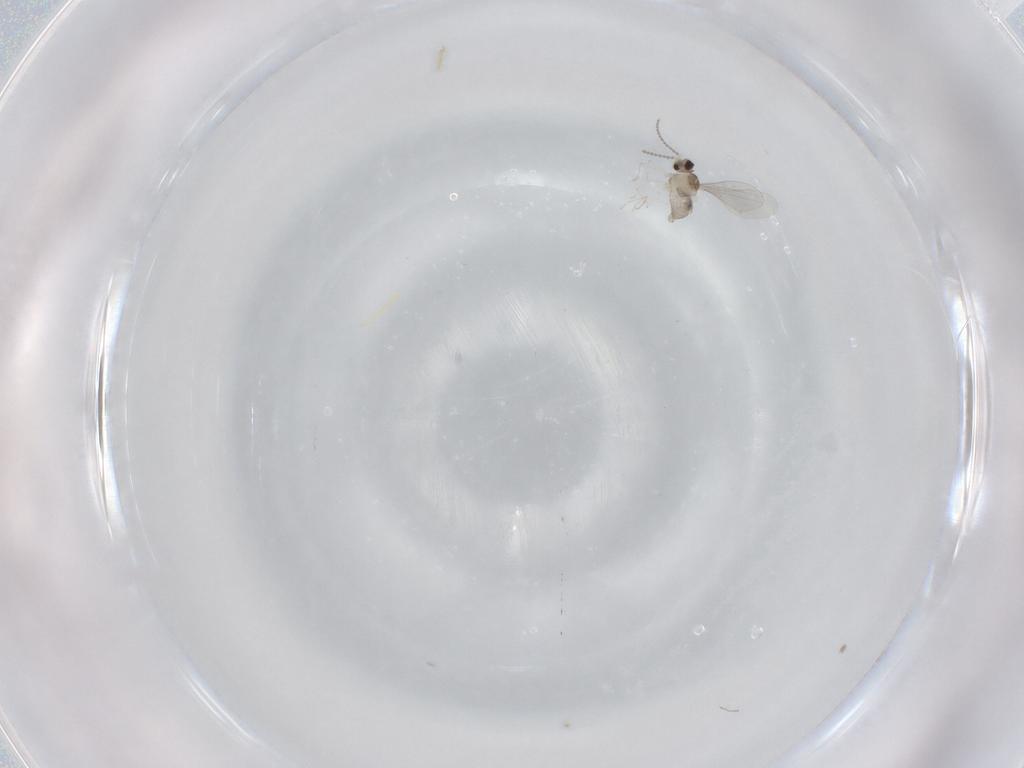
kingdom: Animalia
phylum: Arthropoda
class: Insecta
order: Diptera
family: Cecidomyiidae
